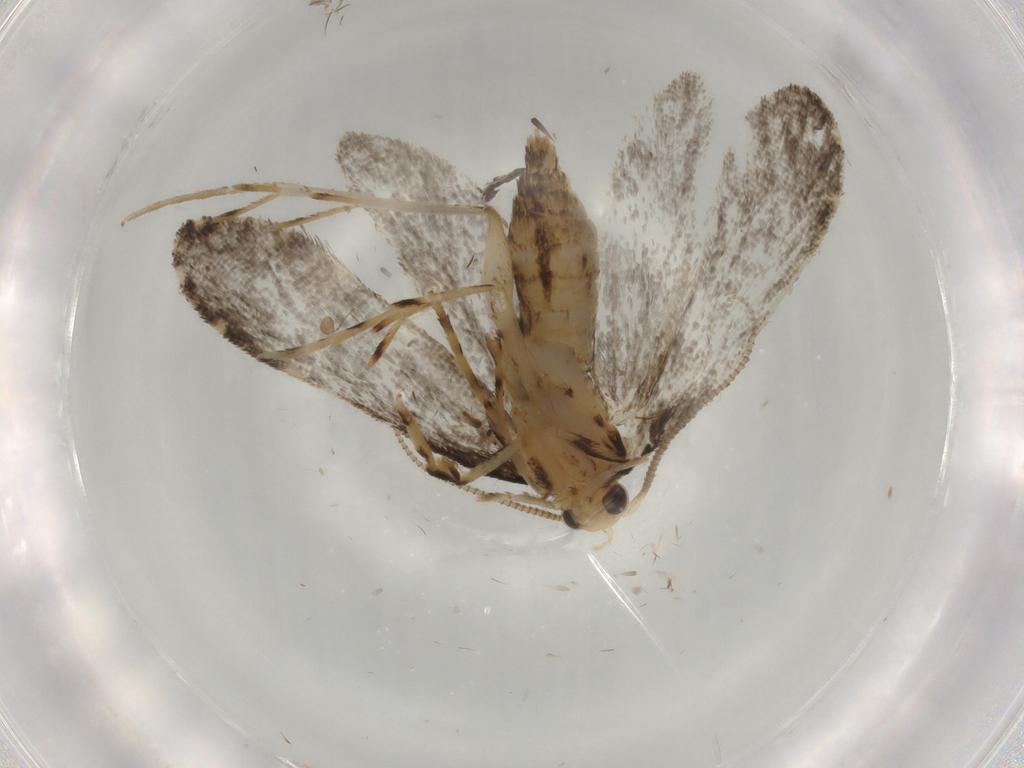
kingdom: Animalia
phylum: Arthropoda
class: Insecta
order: Lepidoptera
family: Tineidae
